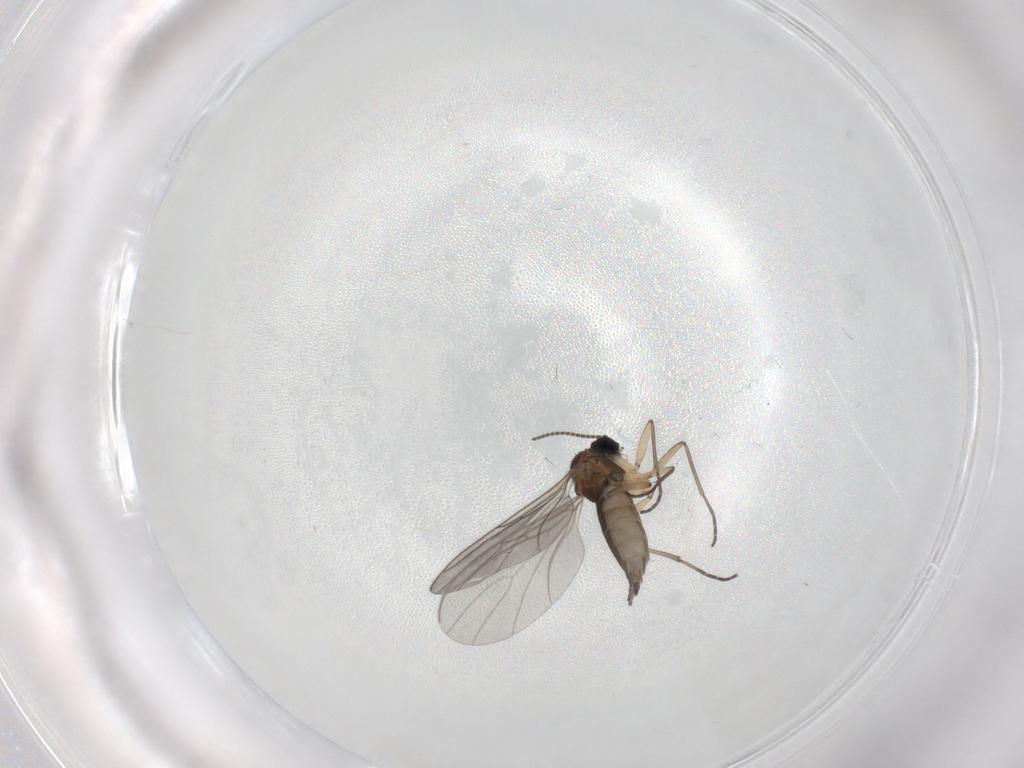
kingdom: Animalia
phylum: Arthropoda
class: Insecta
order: Diptera
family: Sciaridae
